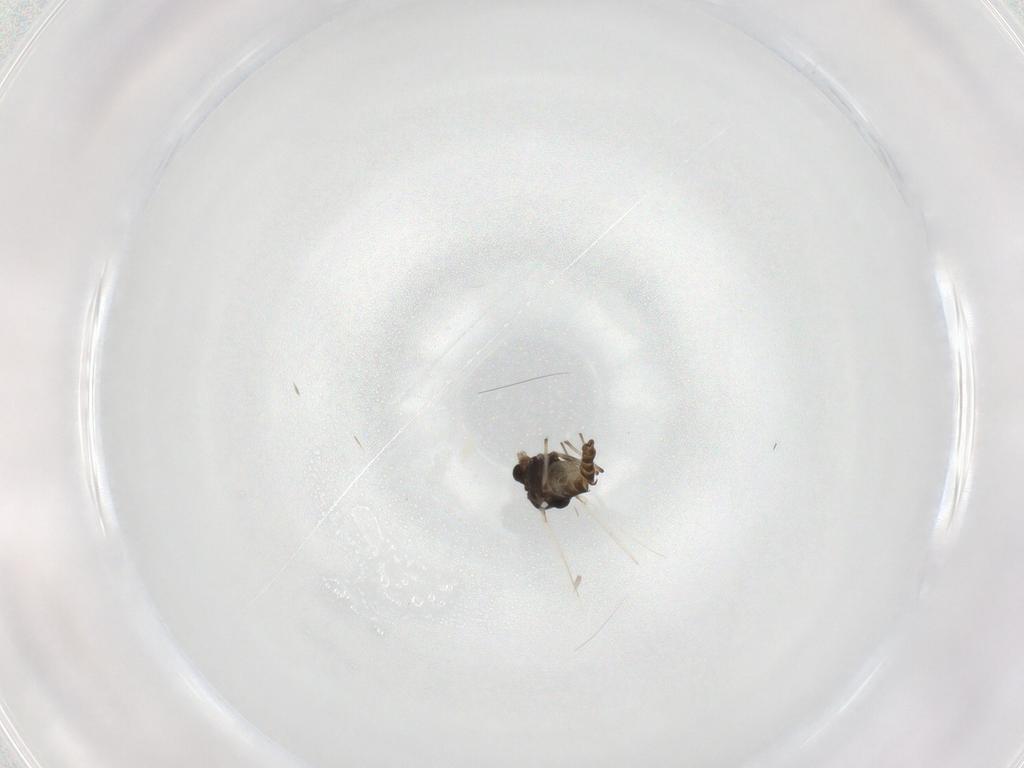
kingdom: Animalia
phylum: Arthropoda
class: Insecta
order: Diptera
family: Chironomidae
